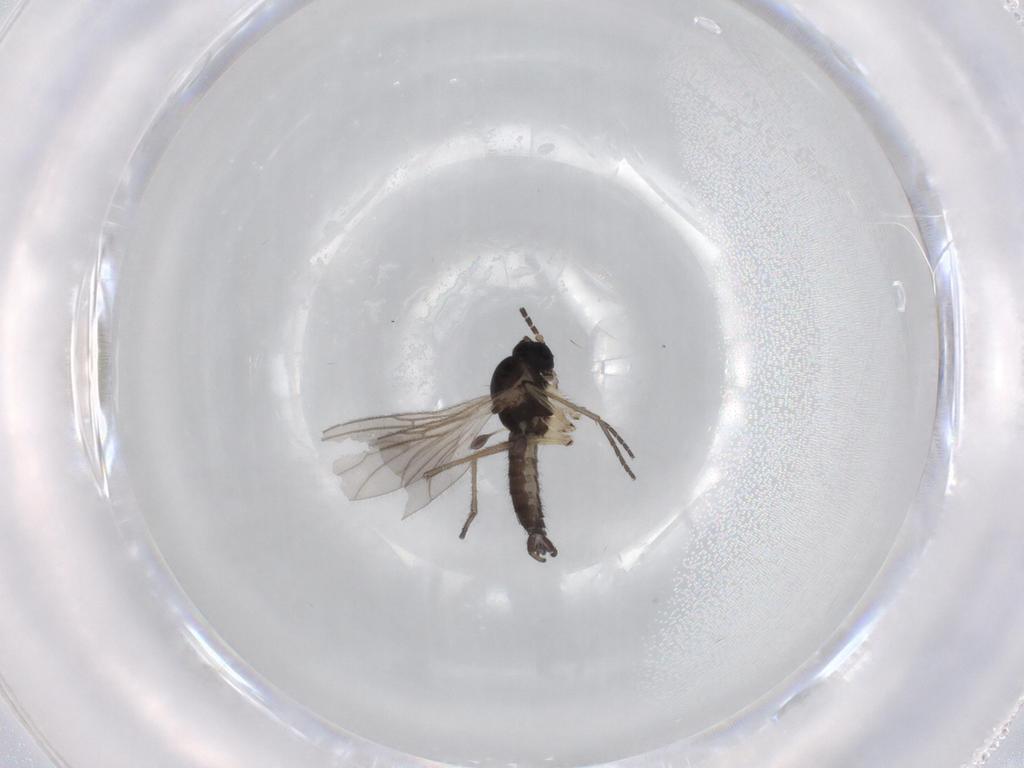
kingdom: Animalia
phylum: Arthropoda
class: Insecta
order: Diptera
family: Sciaridae
